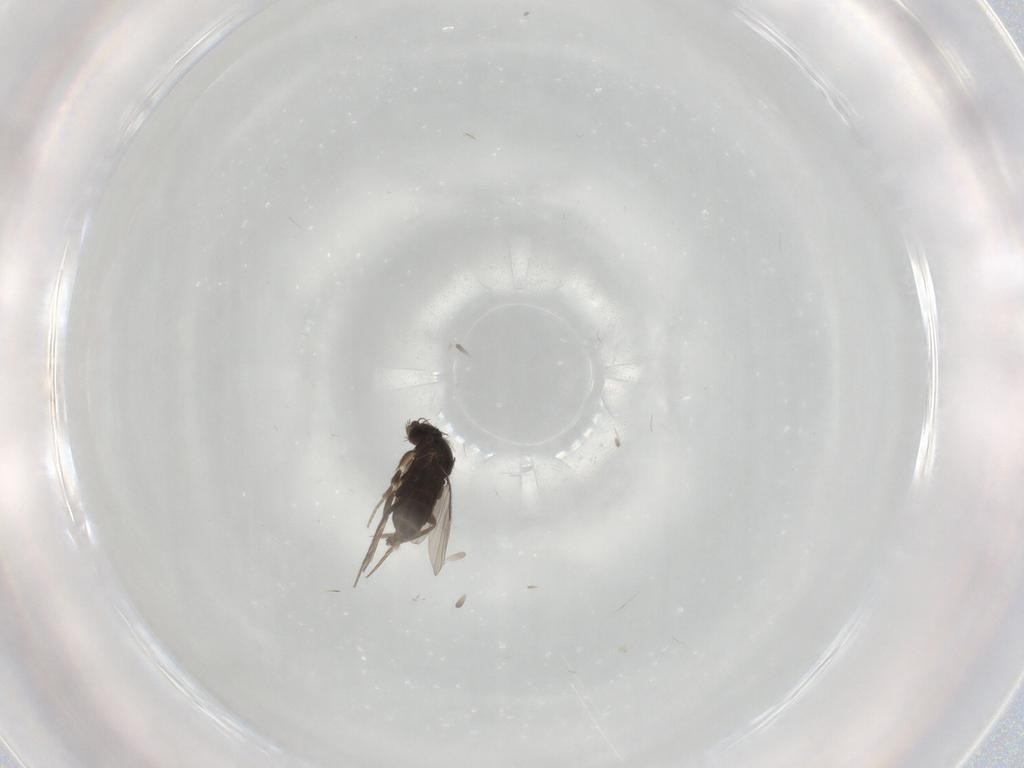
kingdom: Animalia
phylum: Arthropoda
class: Insecta
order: Diptera
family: Phoridae
